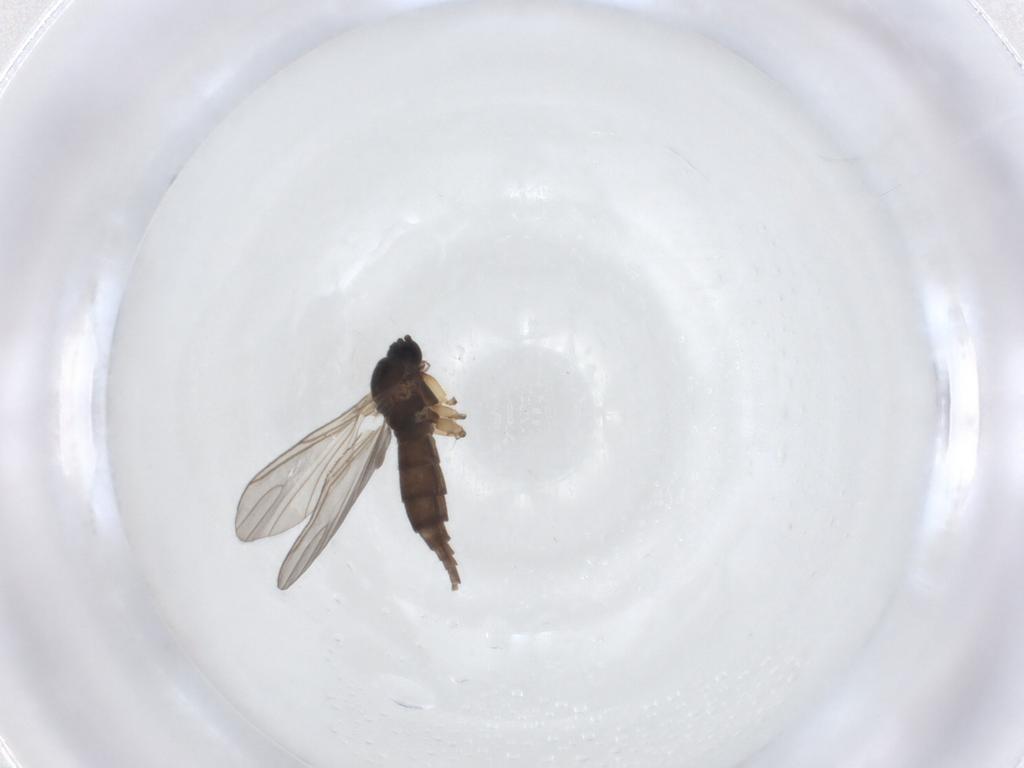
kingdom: Animalia
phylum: Arthropoda
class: Insecta
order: Diptera
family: Sciaridae
